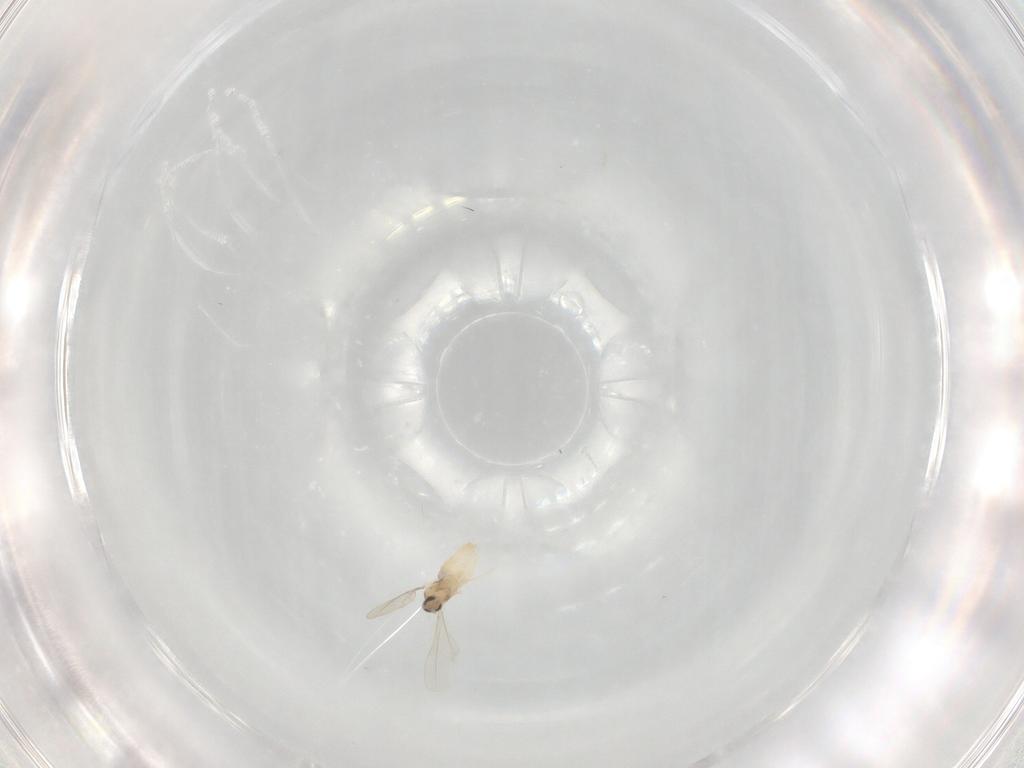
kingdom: Animalia
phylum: Arthropoda
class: Insecta
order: Diptera
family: Cecidomyiidae
